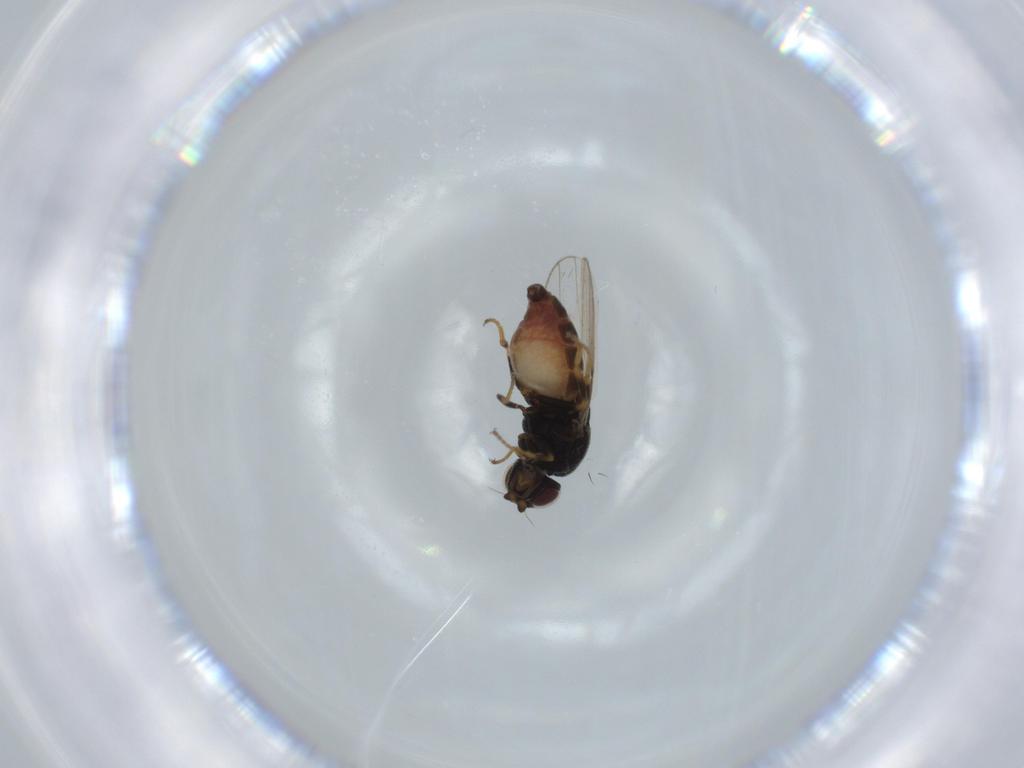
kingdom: Animalia
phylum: Arthropoda
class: Insecta
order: Diptera
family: Chloropidae
